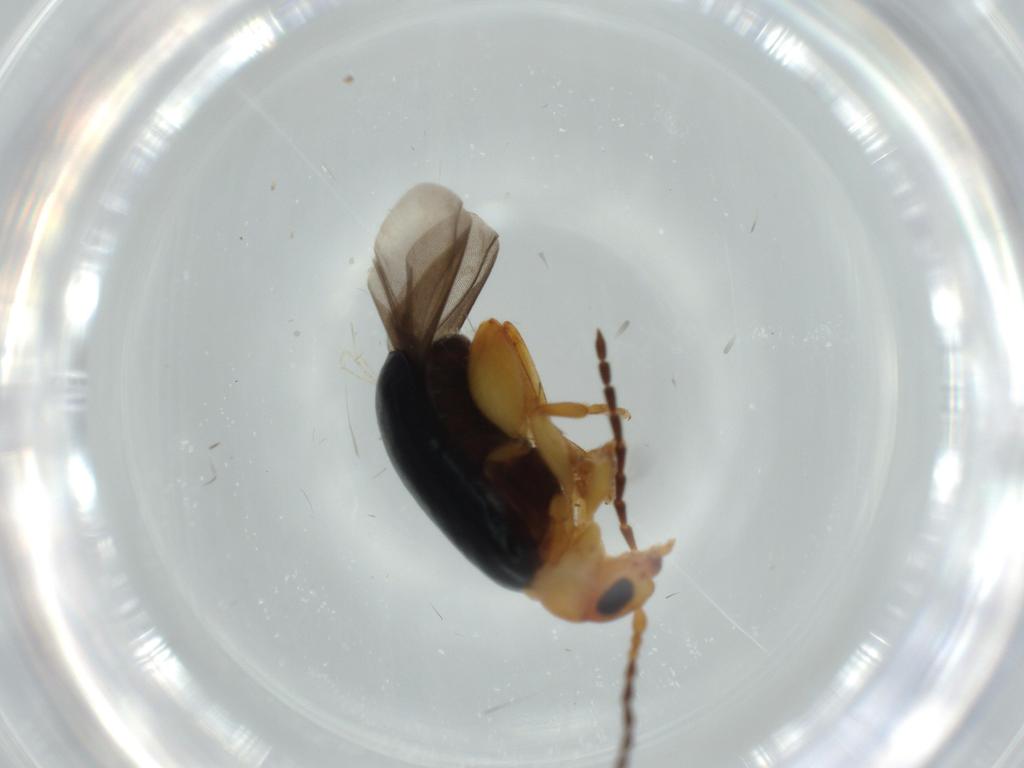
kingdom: Animalia
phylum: Arthropoda
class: Insecta
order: Coleoptera
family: Chrysomelidae
